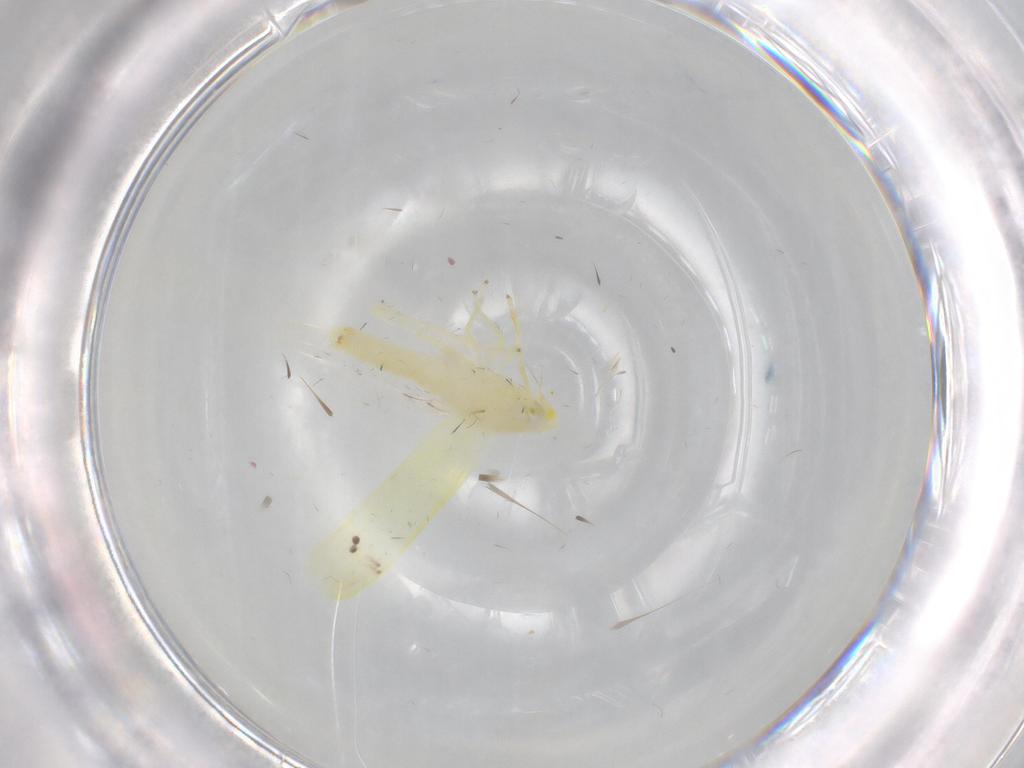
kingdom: Animalia
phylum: Arthropoda
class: Insecta
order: Hemiptera
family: Cicadellidae
